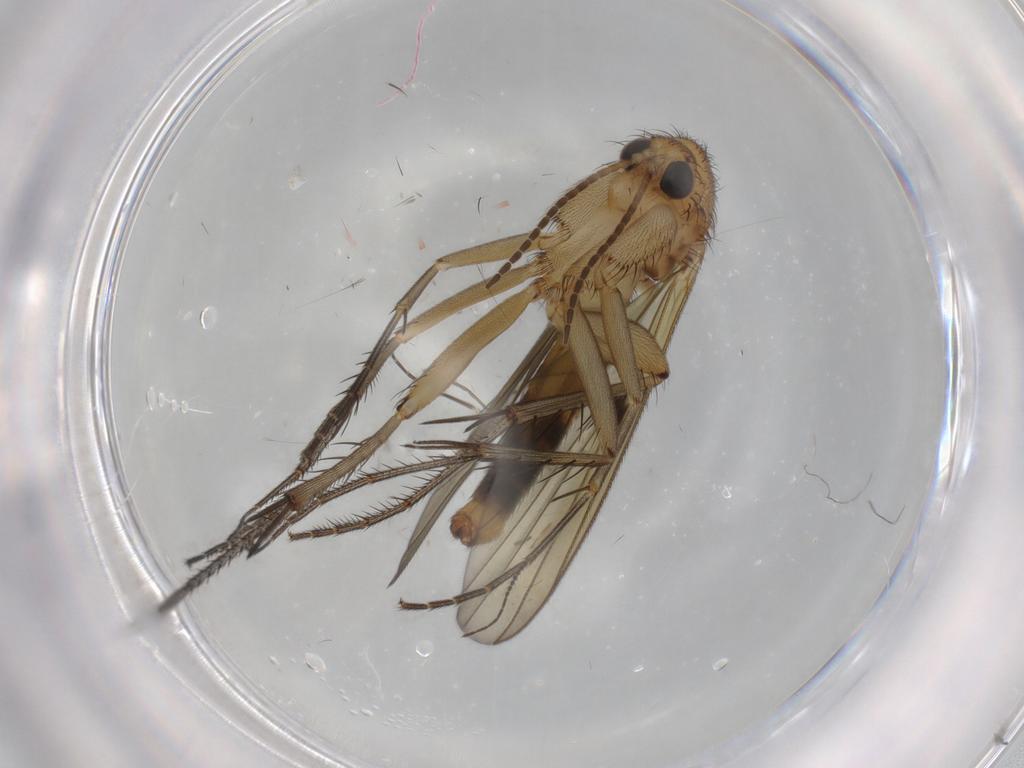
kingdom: Animalia
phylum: Arthropoda
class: Insecta
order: Diptera
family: Mycetophilidae
